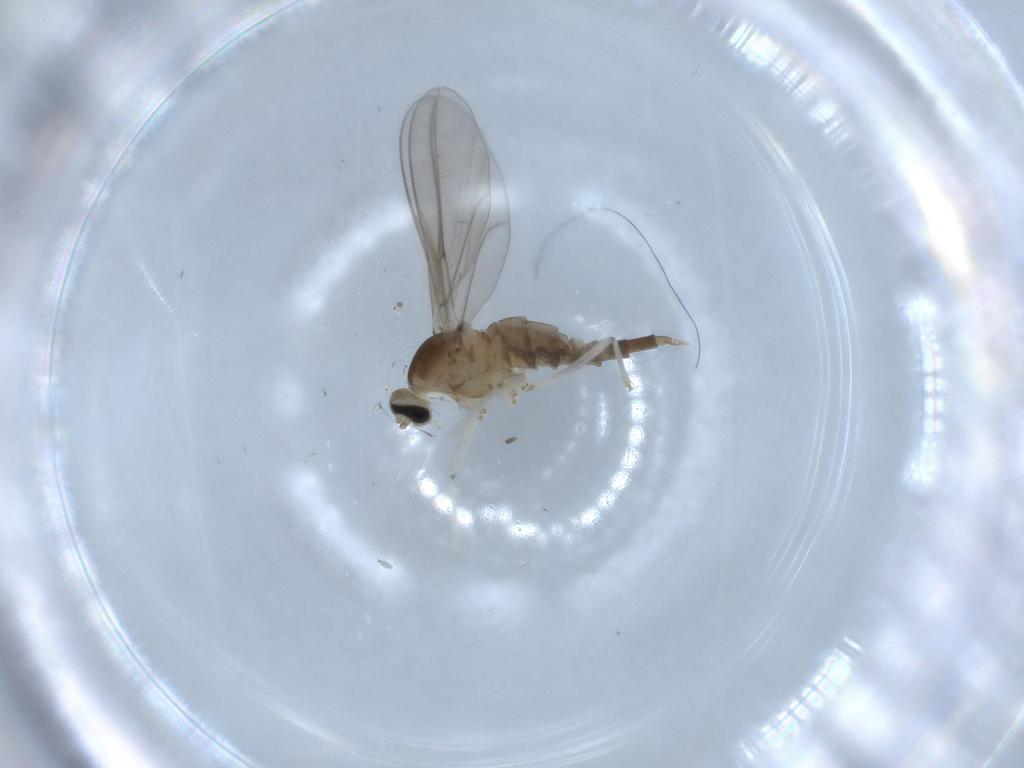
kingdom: Animalia
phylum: Arthropoda
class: Insecta
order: Diptera
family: Cecidomyiidae
